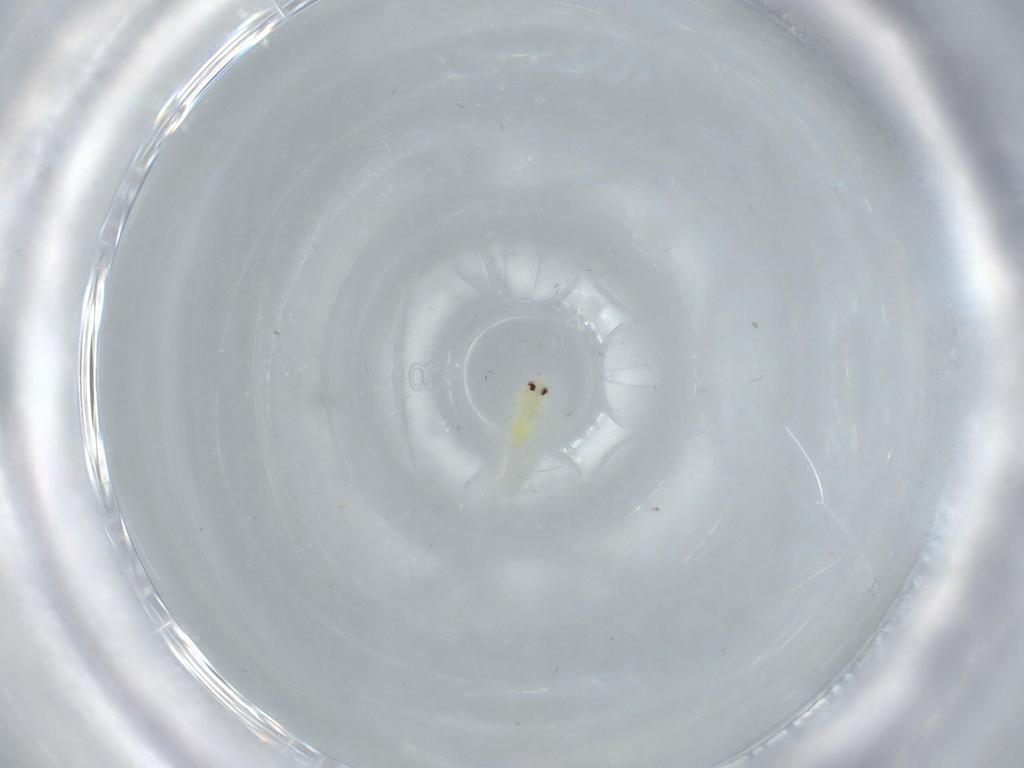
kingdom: Animalia
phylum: Arthropoda
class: Insecta
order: Hemiptera
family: Aleyrodidae
